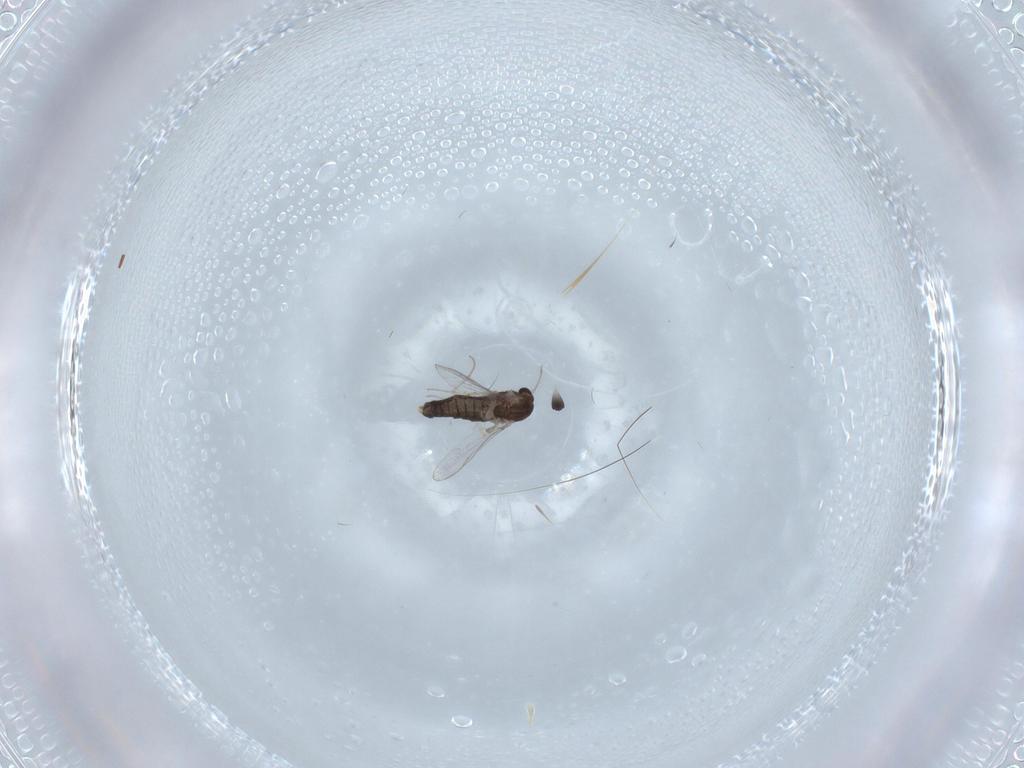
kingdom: Animalia
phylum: Arthropoda
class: Insecta
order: Diptera
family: Chironomidae
